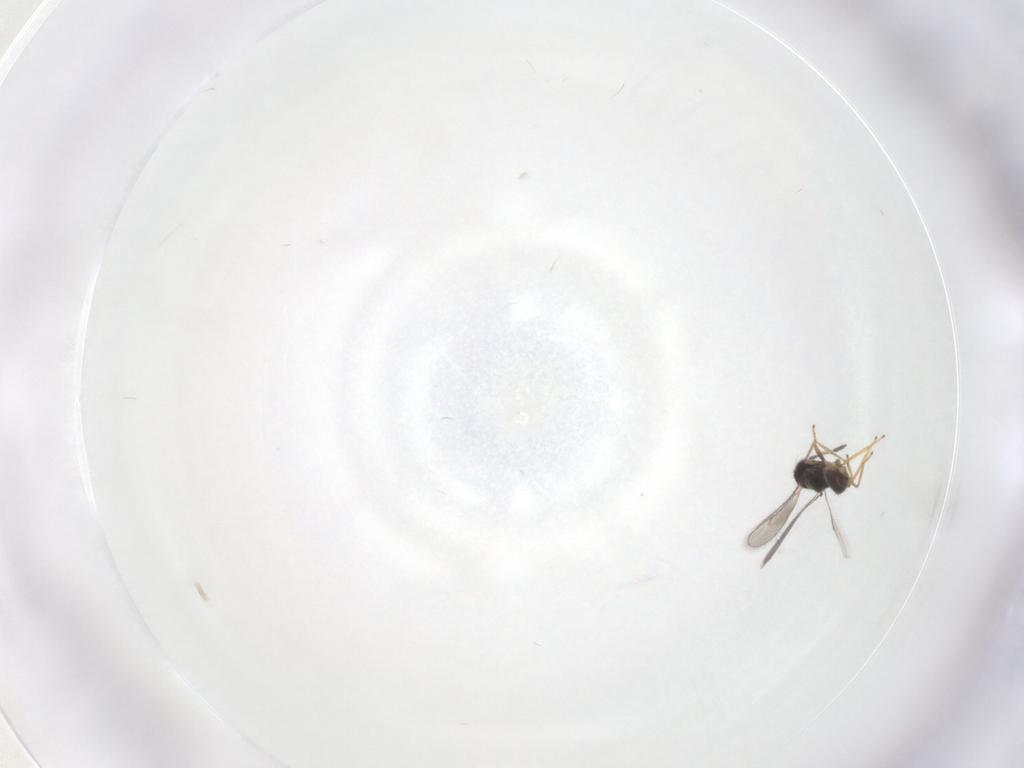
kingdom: Animalia
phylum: Arthropoda
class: Insecta
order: Hymenoptera
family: Eulophidae
